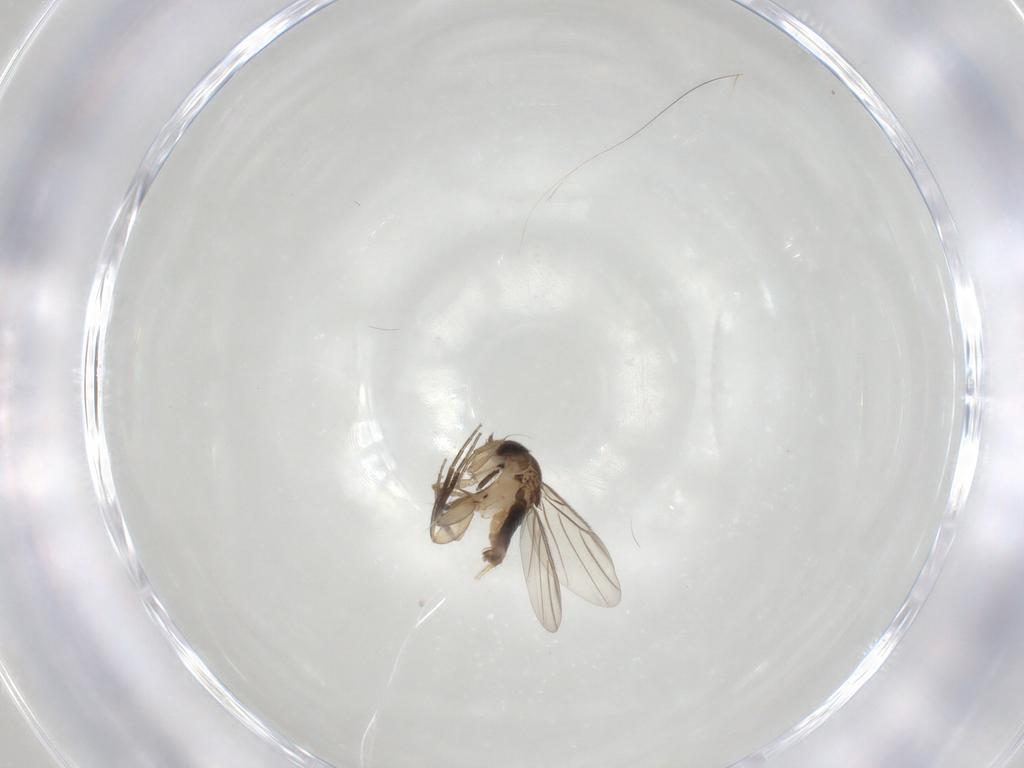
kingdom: Animalia
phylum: Arthropoda
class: Insecta
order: Diptera
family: Phoridae
